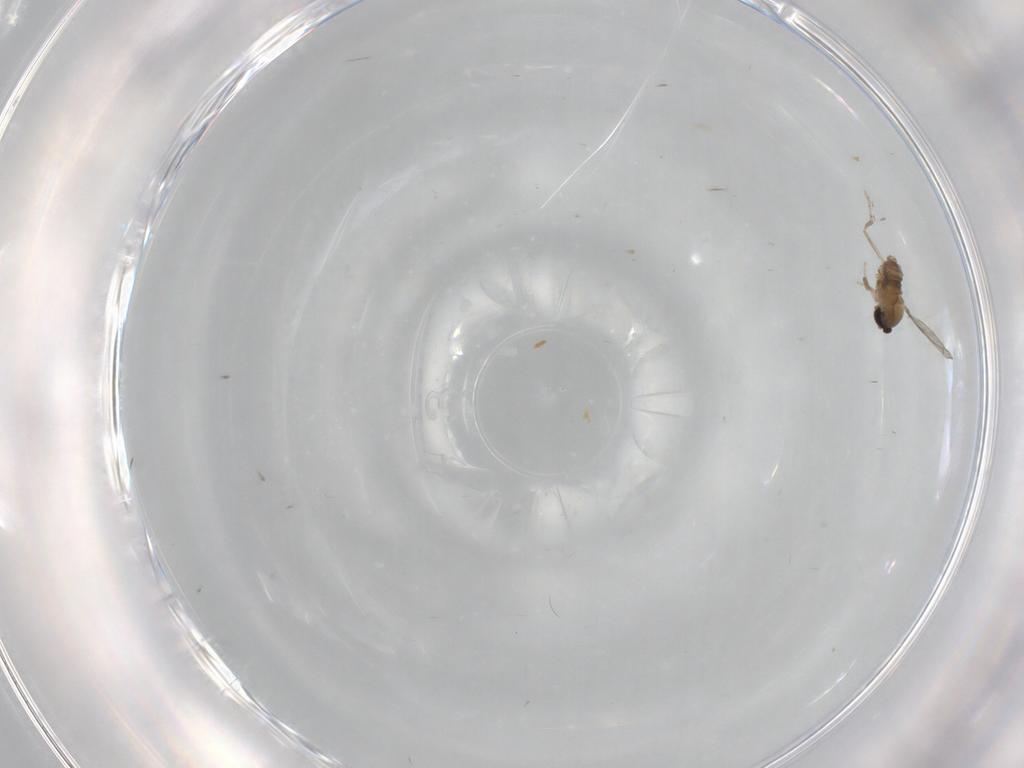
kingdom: Animalia
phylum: Arthropoda
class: Insecta
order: Diptera
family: Cecidomyiidae
